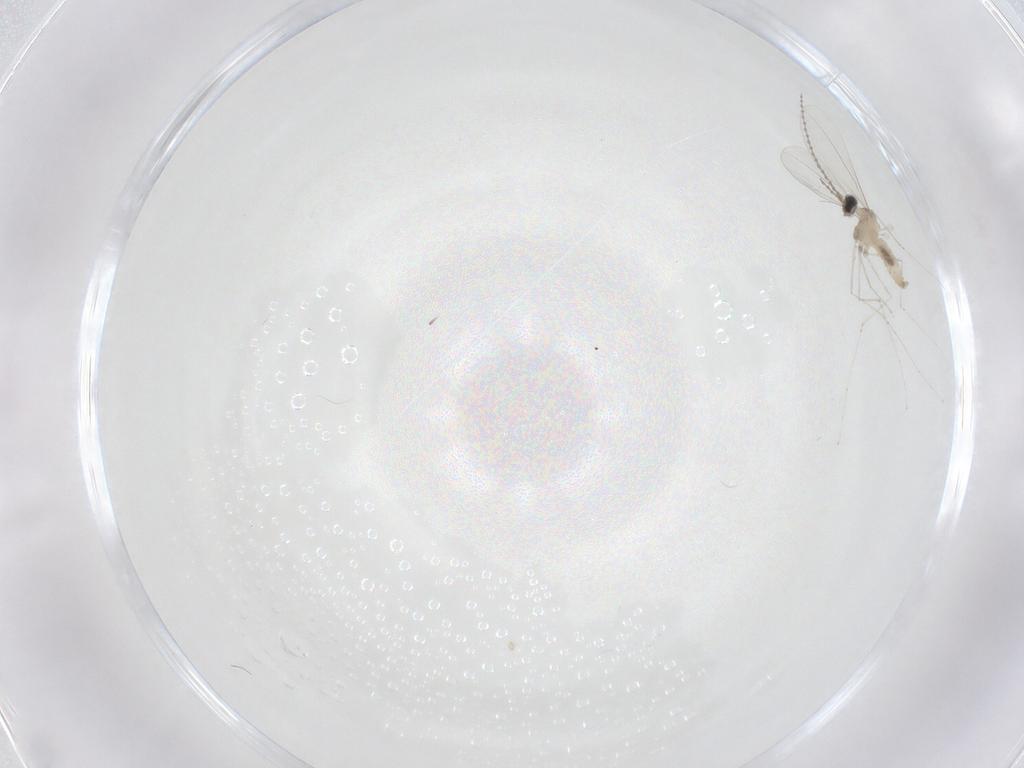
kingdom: Animalia
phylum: Arthropoda
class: Insecta
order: Diptera
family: Cecidomyiidae
